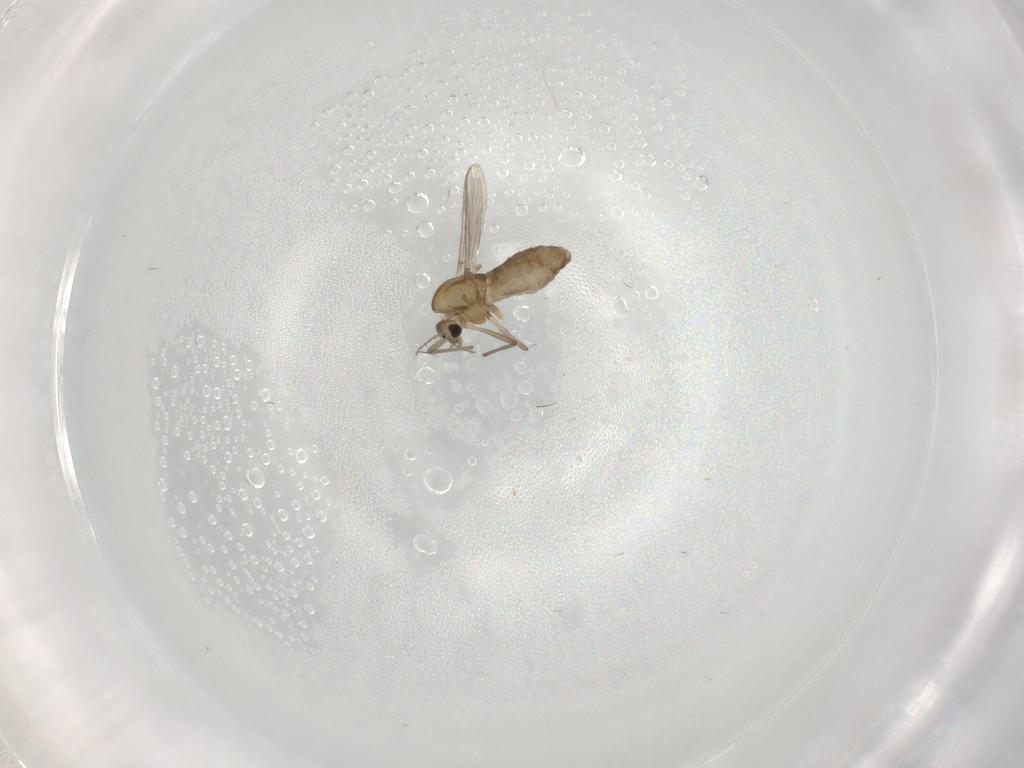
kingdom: Animalia
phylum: Arthropoda
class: Insecta
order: Diptera
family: Chironomidae
